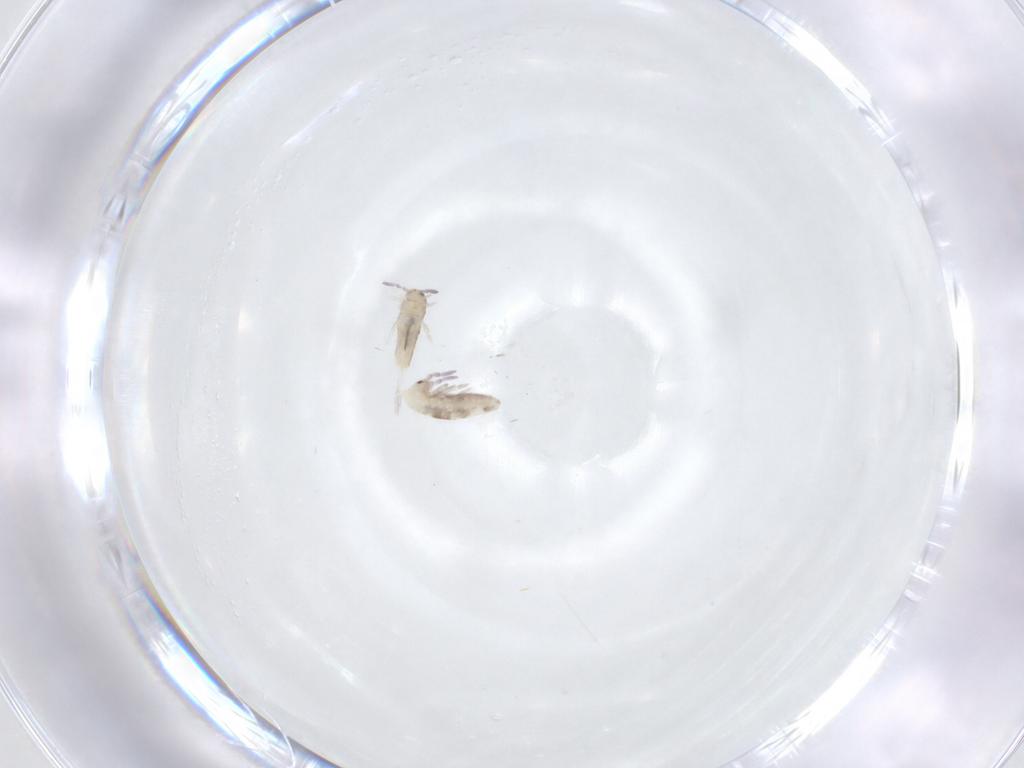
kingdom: Animalia
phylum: Arthropoda
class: Collembola
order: Entomobryomorpha
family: Entomobryidae
